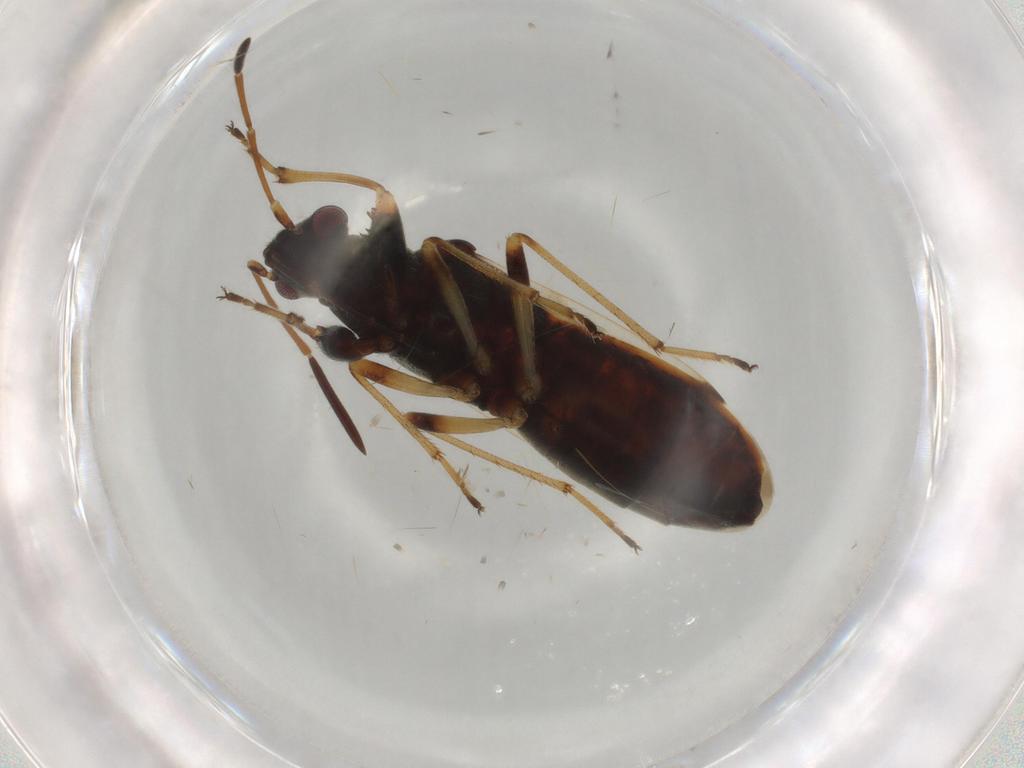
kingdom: Animalia
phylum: Arthropoda
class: Insecta
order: Hemiptera
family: Rhyparochromidae
